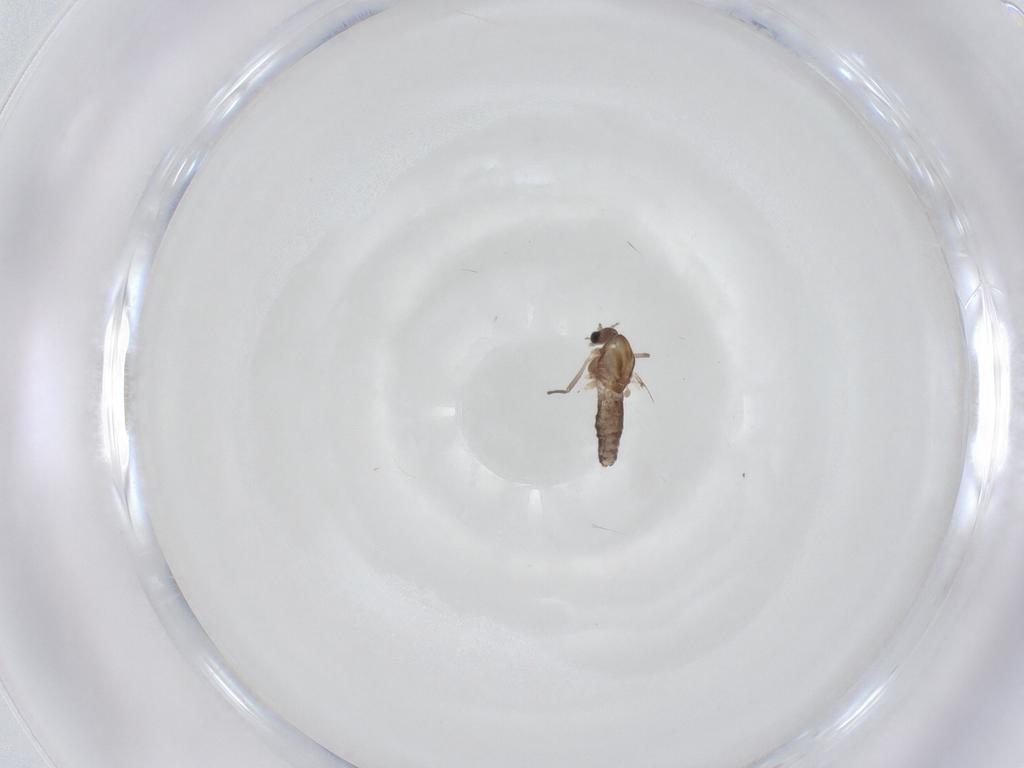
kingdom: Animalia
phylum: Arthropoda
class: Insecta
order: Diptera
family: Chironomidae
